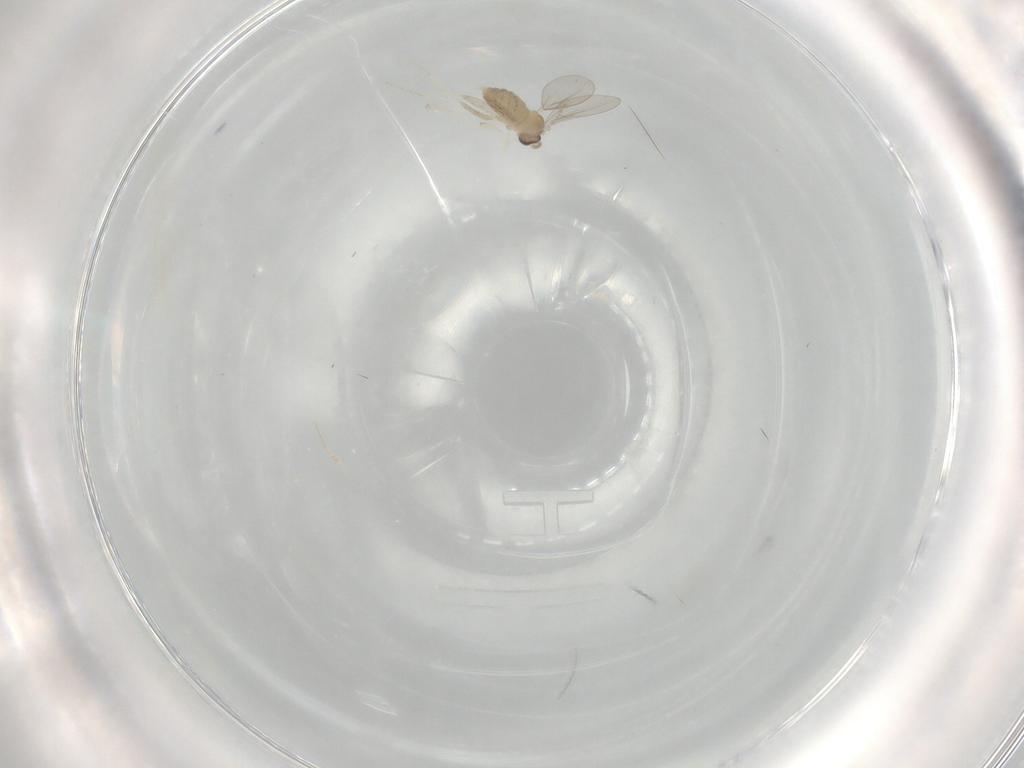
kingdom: Animalia
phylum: Arthropoda
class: Insecta
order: Diptera
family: Cecidomyiidae
